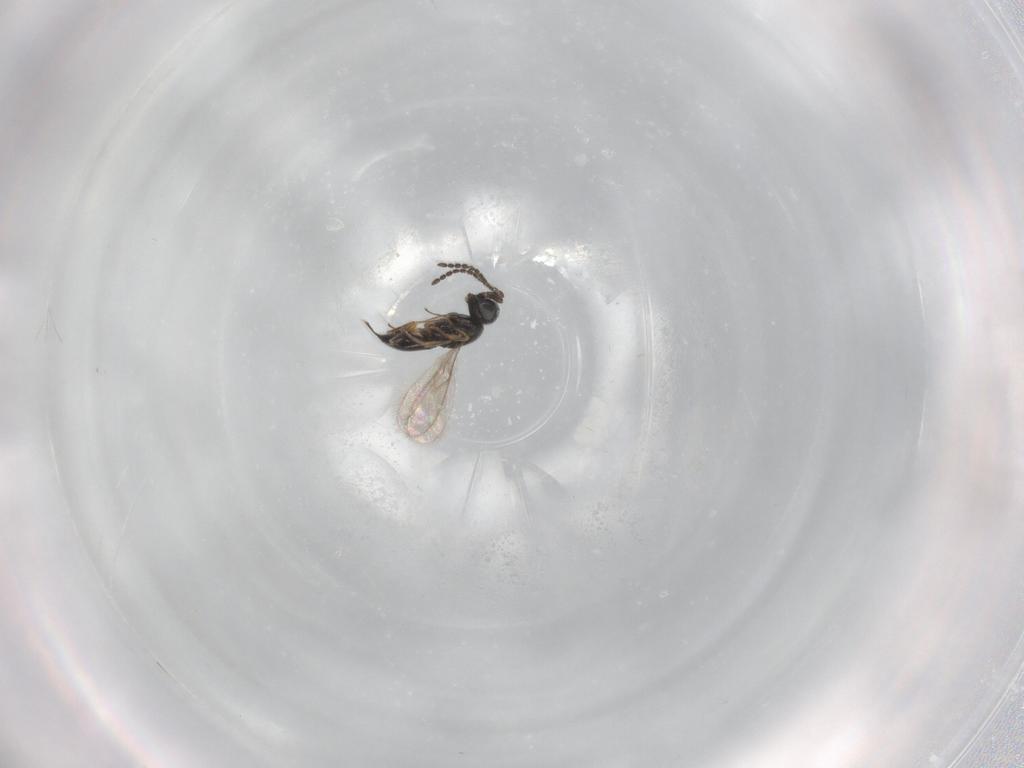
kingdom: Animalia
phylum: Arthropoda
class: Insecta
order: Hymenoptera
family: Scelionidae
